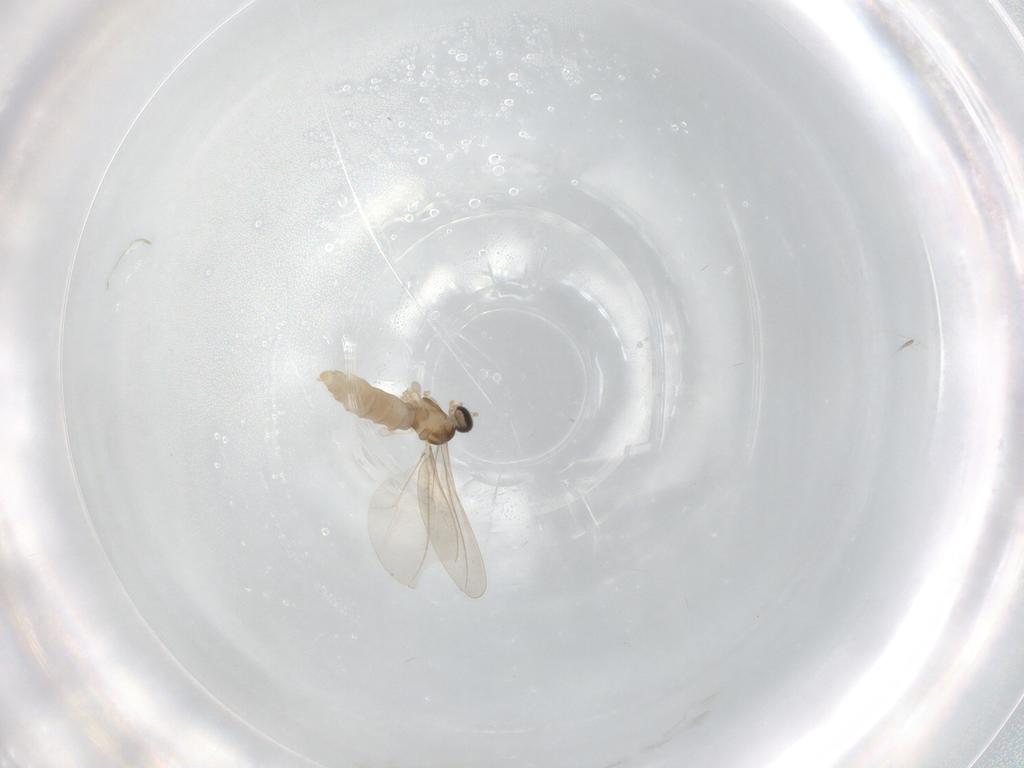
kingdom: Animalia
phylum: Arthropoda
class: Insecta
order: Diptera
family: Cecidomyiidae
